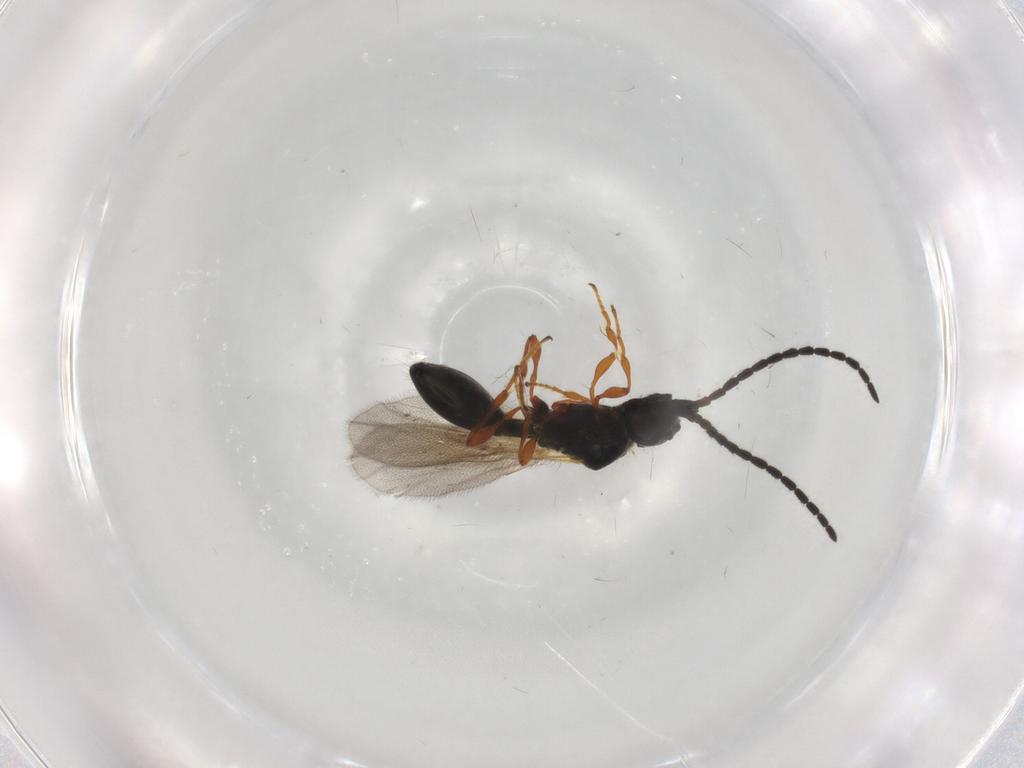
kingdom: Animalia
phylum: Arthropoda
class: Insecta
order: Hymenoptera
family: Diapriidae
